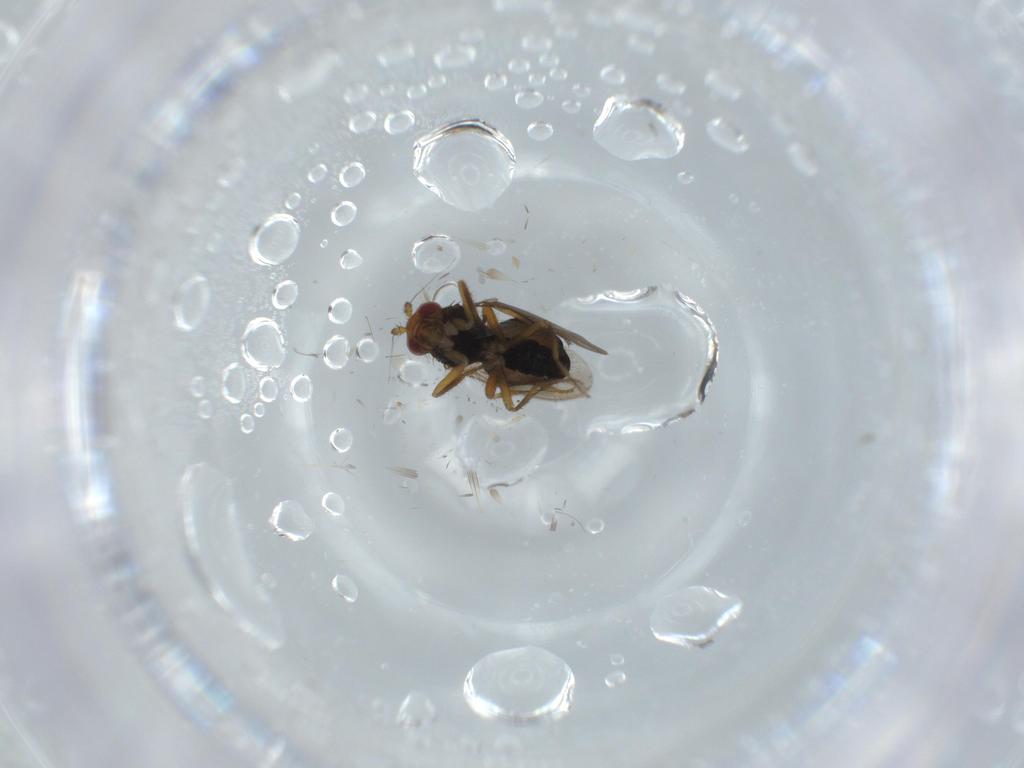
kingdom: Animalia
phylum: Arthropoda
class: Insecta
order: Diptera
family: Sphaeroceridae
